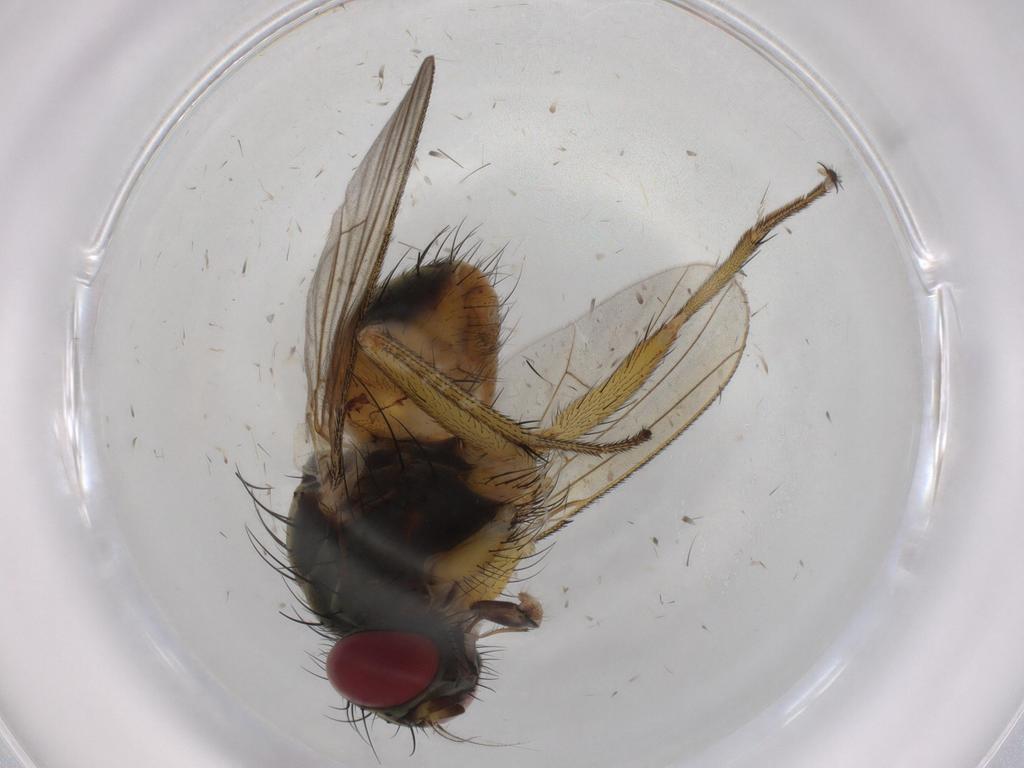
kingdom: Animalia
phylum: Arthropoda
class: Insecta
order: Diptera
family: Muscidae
